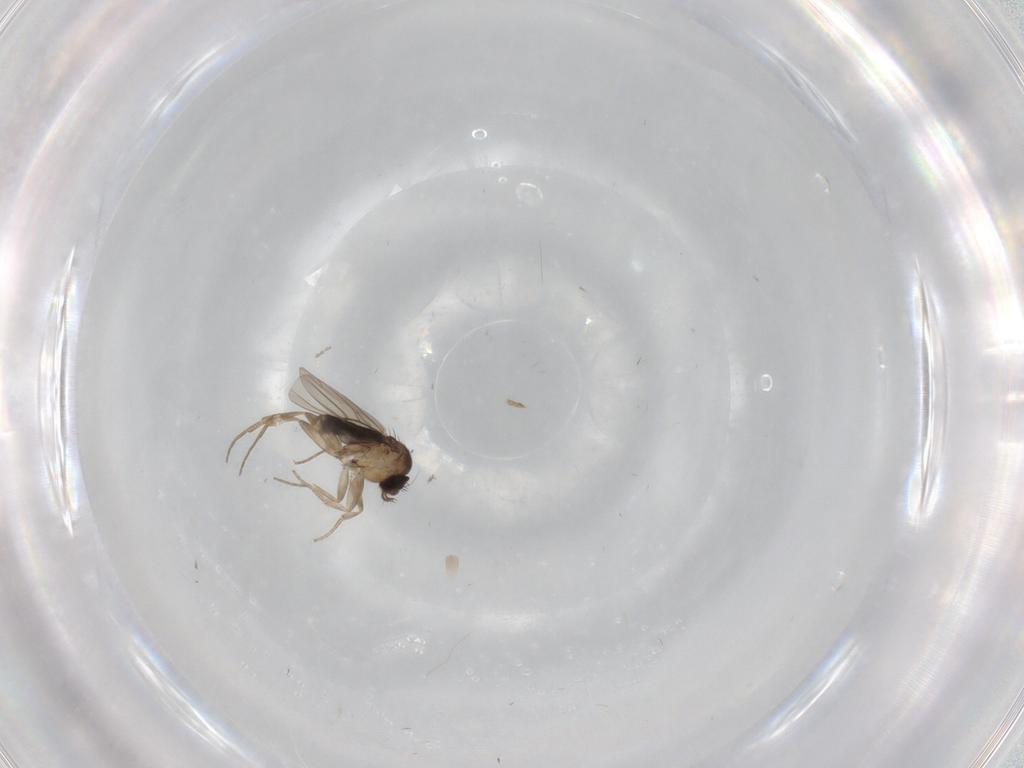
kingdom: Animalia
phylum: Arthropoda
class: Insecta
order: Diptera
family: Phoridae
